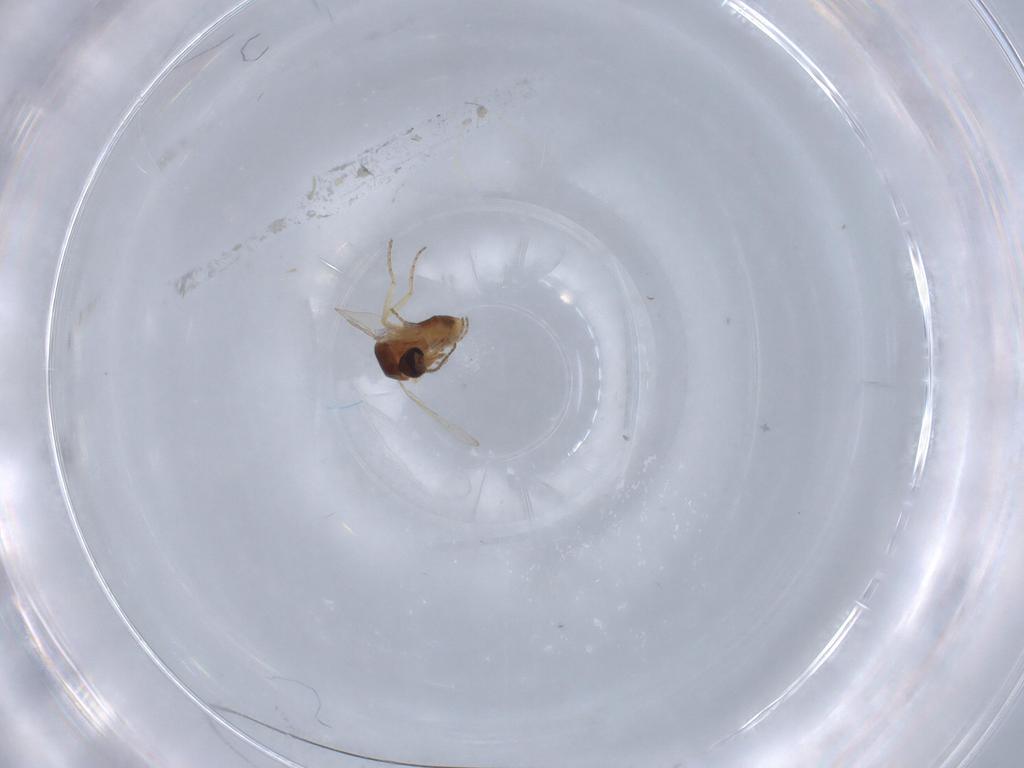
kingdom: Animalia
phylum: Arthropoda
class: Insecta
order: Diptera
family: Ceratopogonidae
